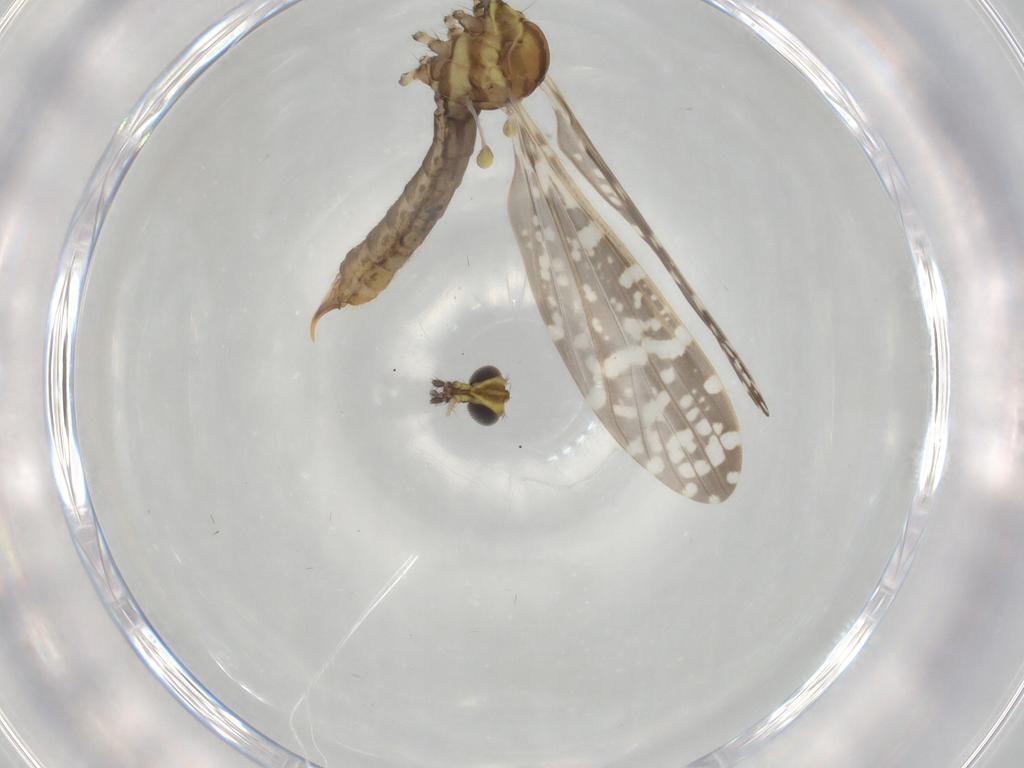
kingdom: Animalia
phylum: Arthropoda
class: Insecta
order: Diptera
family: Limoniidae
